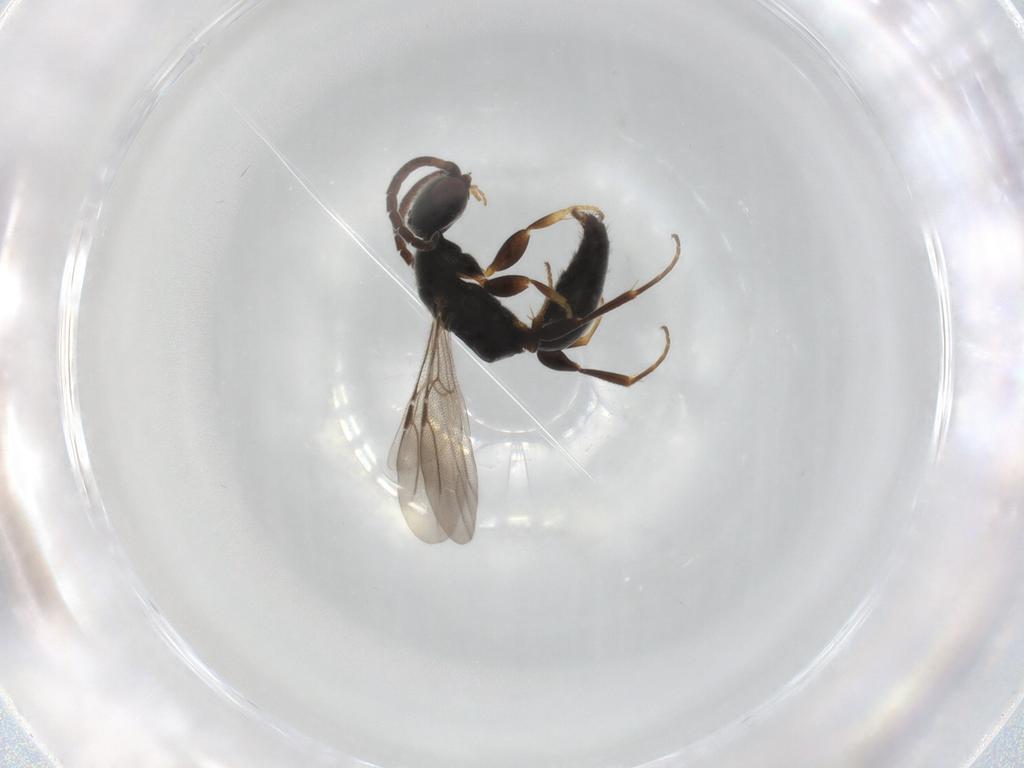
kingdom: Animalia
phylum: Arthropoda
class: Insecta
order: Hymenoptera
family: Bethylidae
